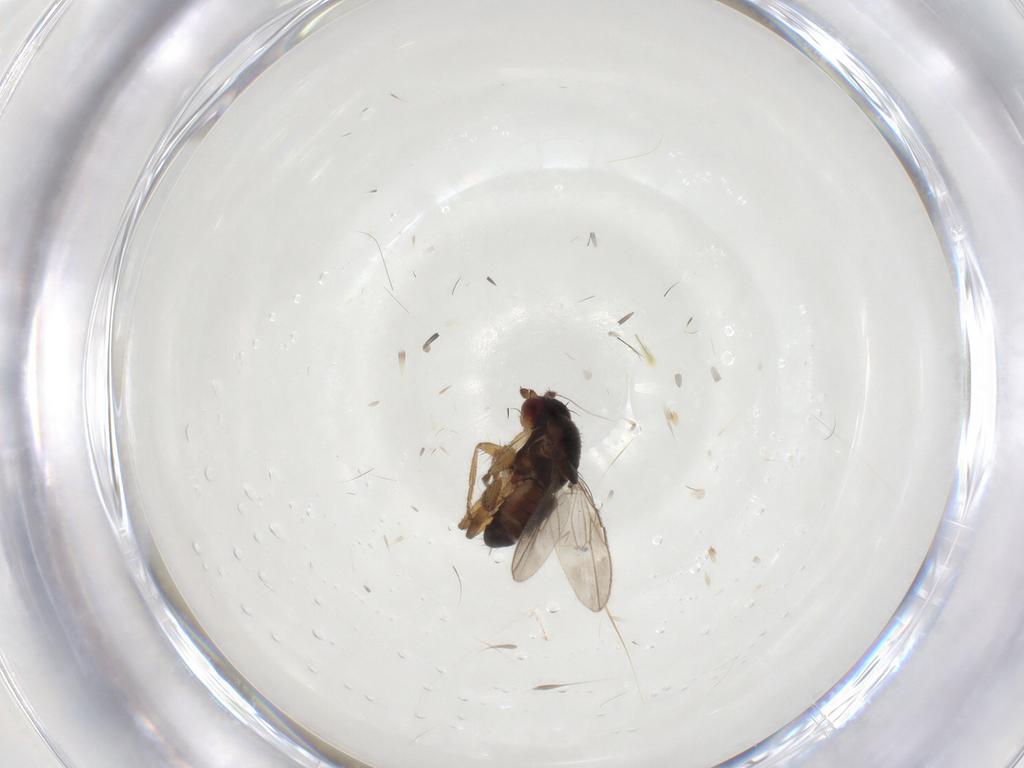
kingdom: Animalia
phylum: Arthropoda
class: Insecta
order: Diptera
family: Sphaeroceridae
